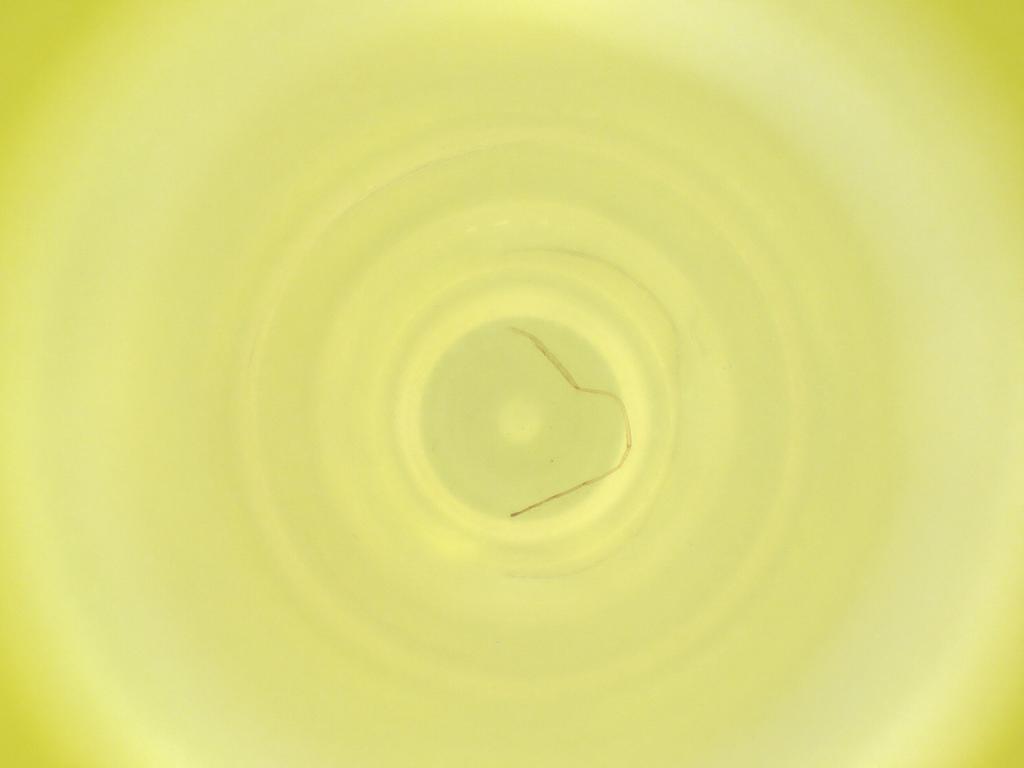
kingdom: Animalia
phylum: Arthropoda
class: Insecta
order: Diptera
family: Cecidomyiidae
